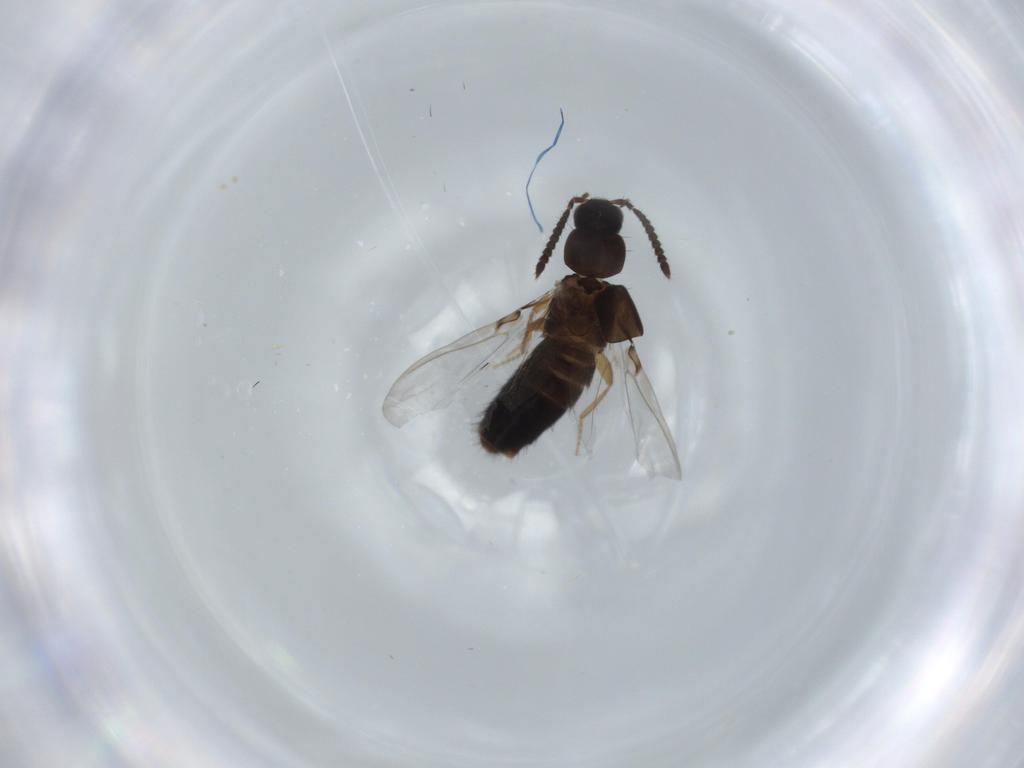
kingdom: Animalia
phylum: Arthropoda
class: Insecta
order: Coleoptera
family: Staphylinidae
